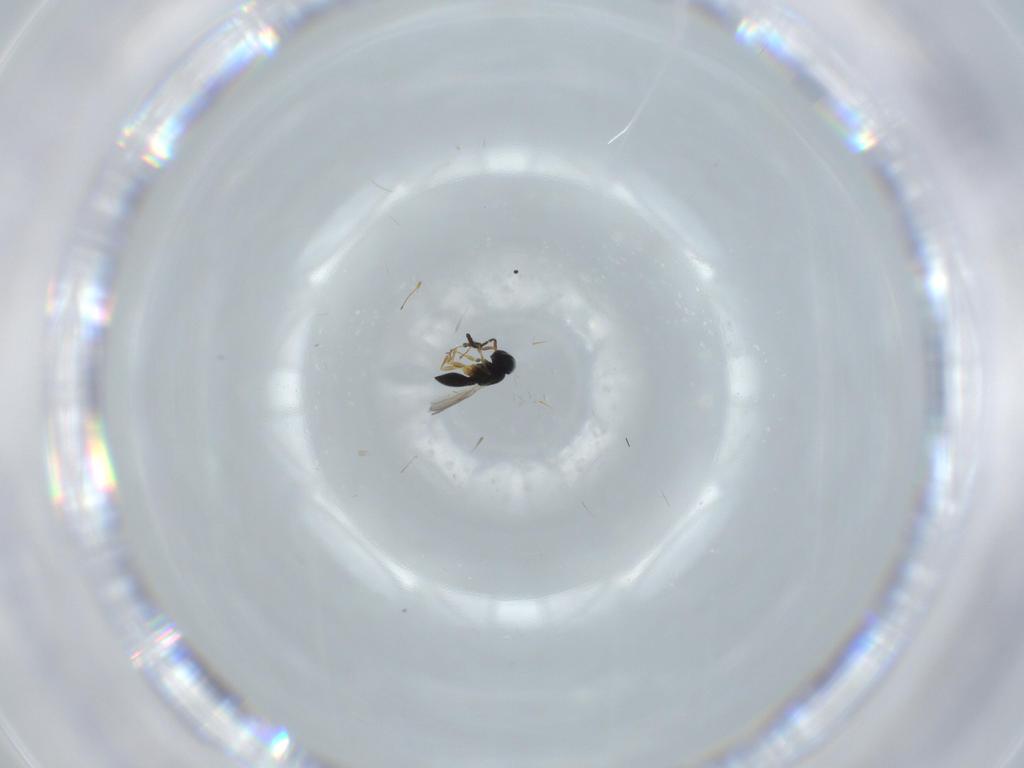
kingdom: Animalia
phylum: Arthropoda
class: Insecta
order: Hymenoptera
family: Scelionidae
